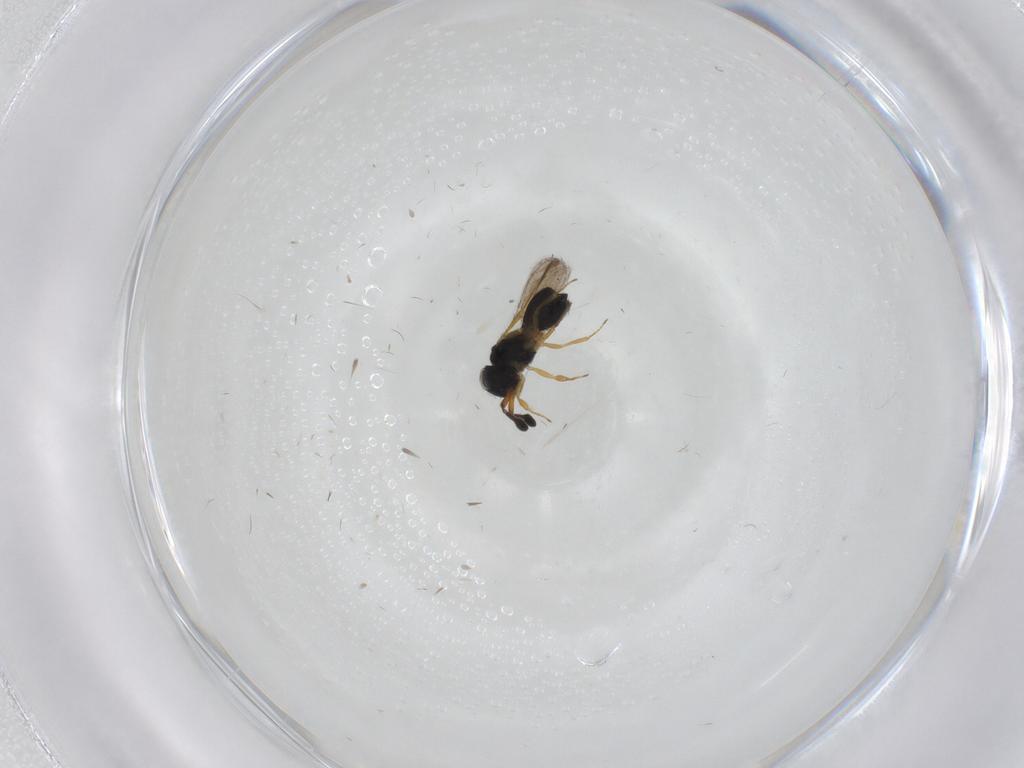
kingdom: Animalia
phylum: Arthropoda
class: Insecta
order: Hymenoptera
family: Scelionidae
